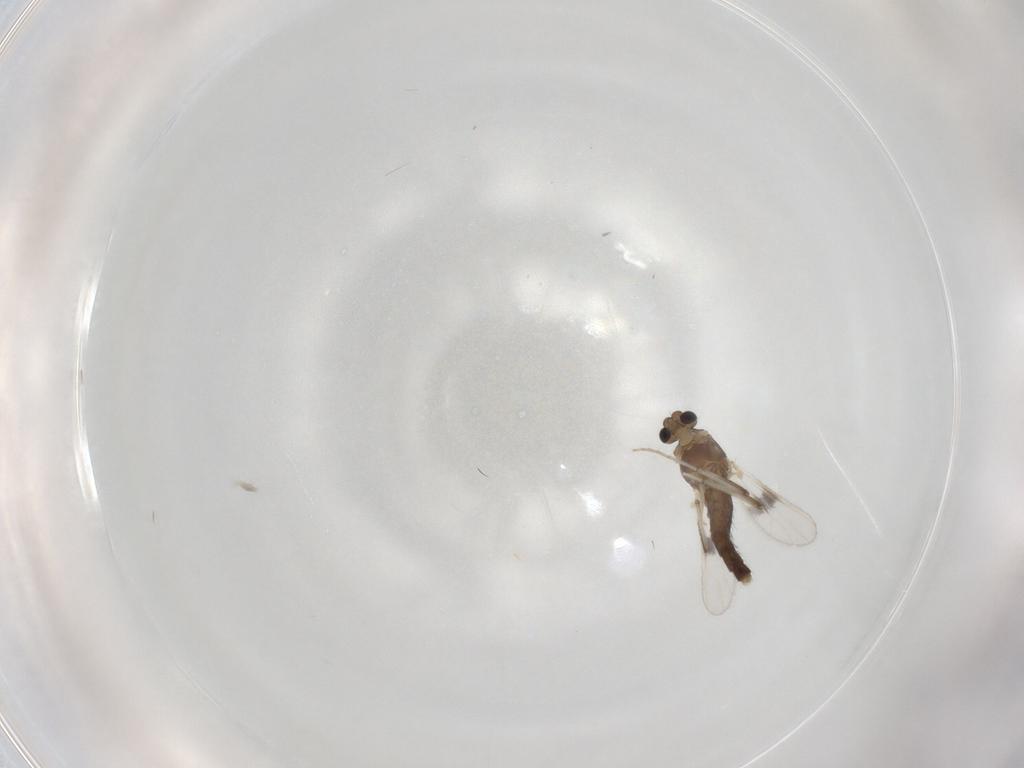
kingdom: Animalia
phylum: Arthropoda
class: Insecta
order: Diptera
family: Chironomidae
